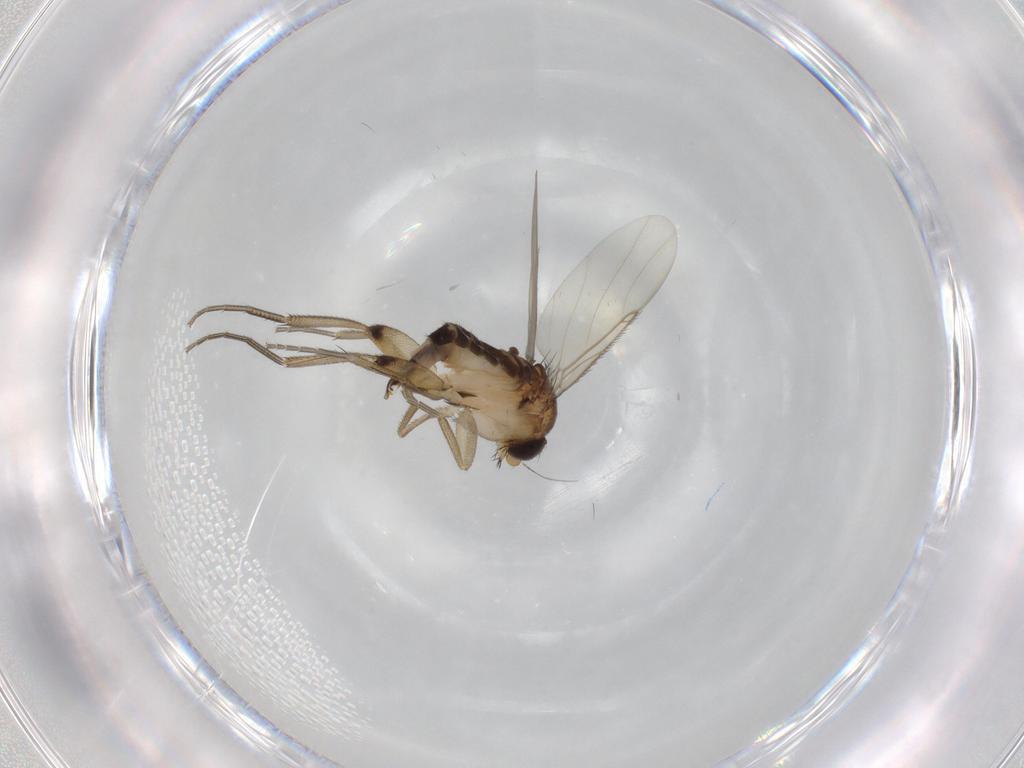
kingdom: Animalia
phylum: Arthropoda
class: Insecta
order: Diptera
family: Phoridae
